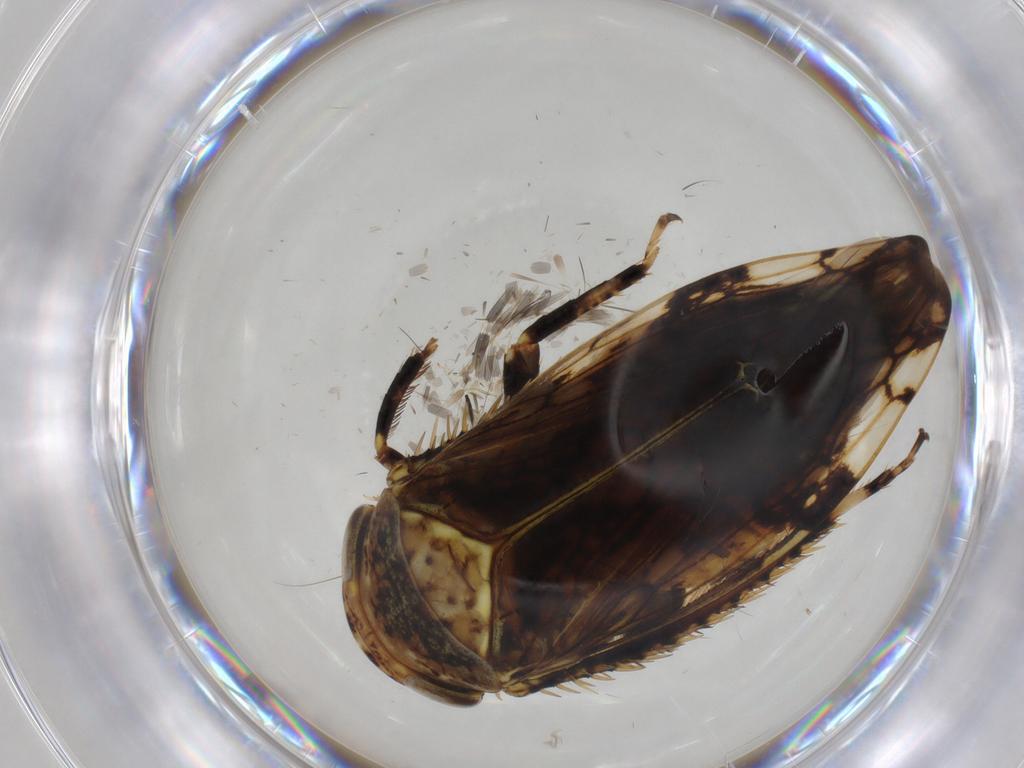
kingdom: Animalia
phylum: Arthropoda
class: Insecta
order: Hemiptera
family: Cicadellidae
